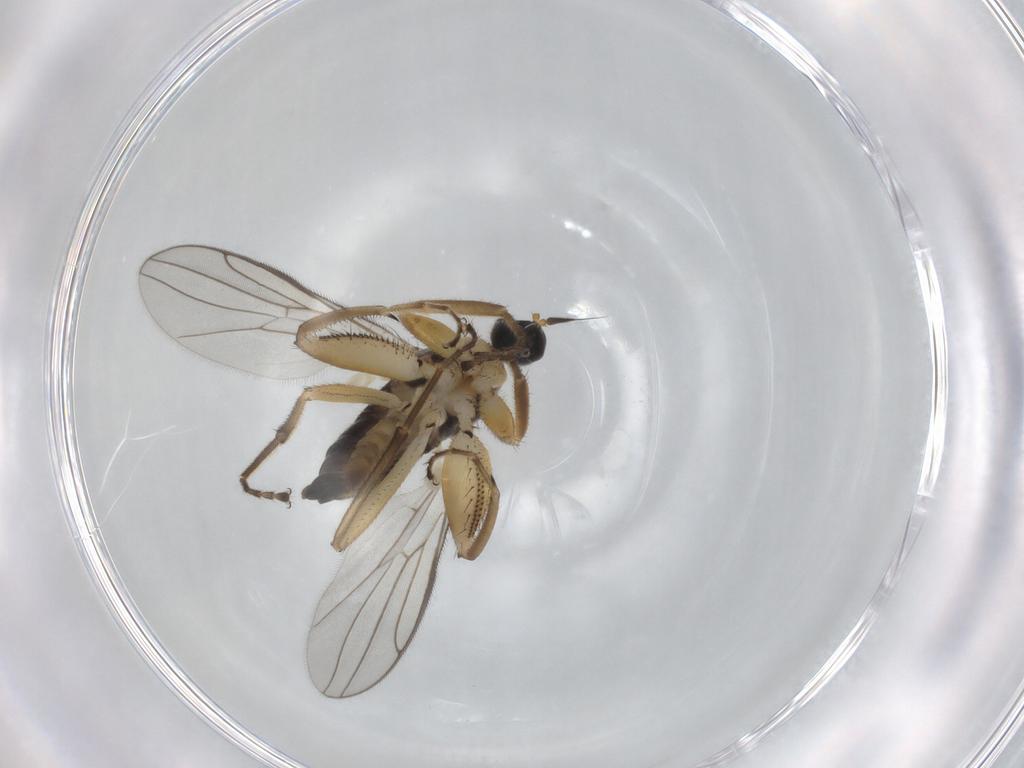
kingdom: Animalia
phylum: Arthropoda
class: Insecta
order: Diptera
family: Hybotidae
